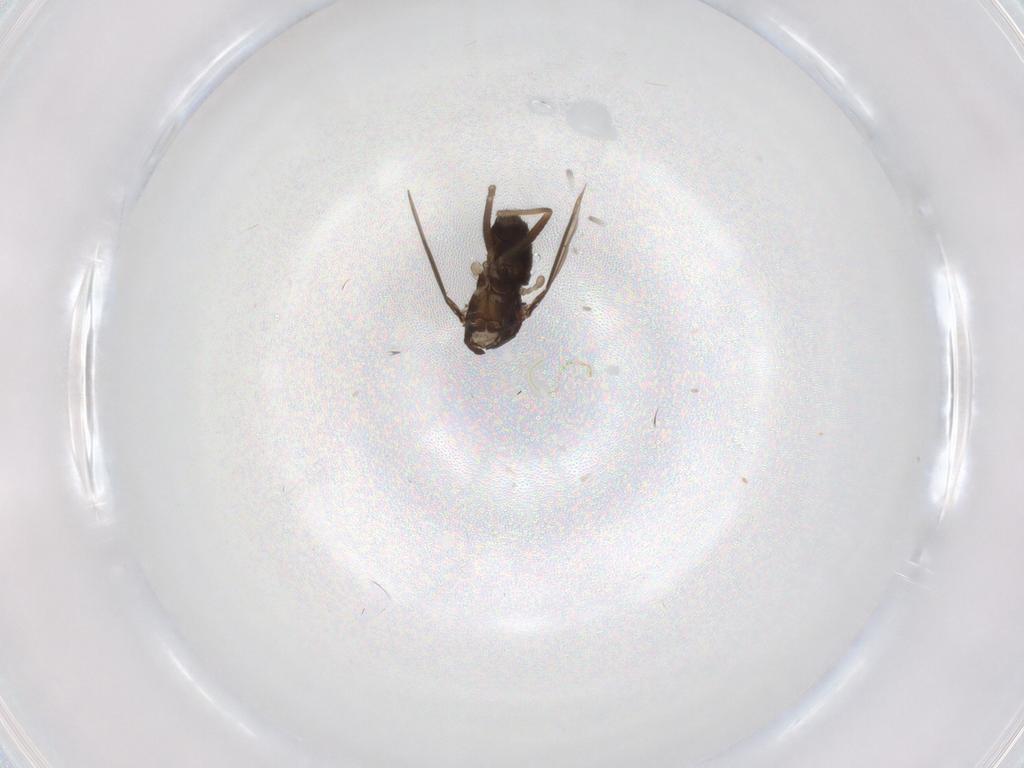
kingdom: Animalia
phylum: Arthropoda
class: Insecta
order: Diptera
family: Dolichopodidae
